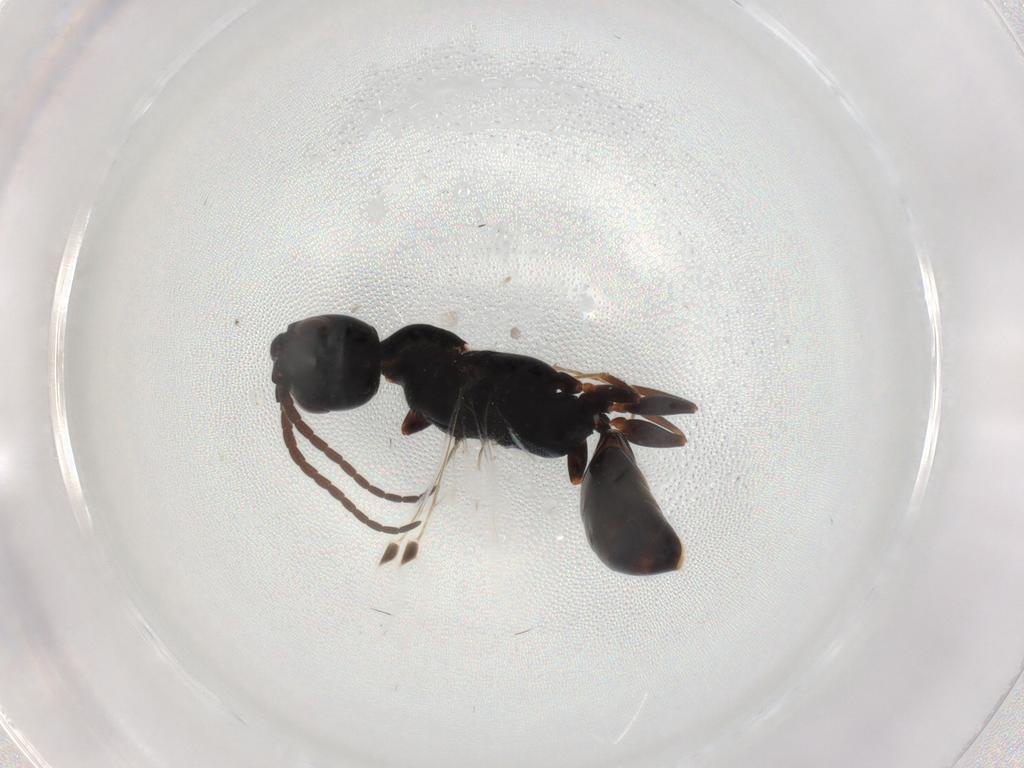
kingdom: Animalia
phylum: Arthropoda
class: Insecta
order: Hymenoptera
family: Bethylidae
